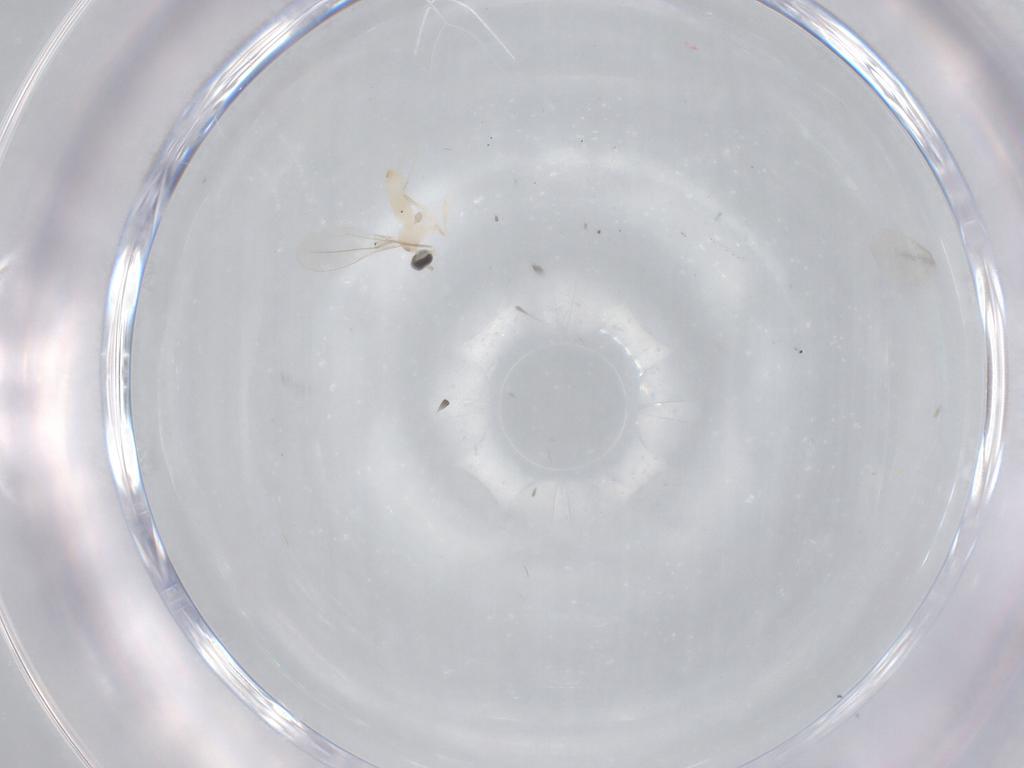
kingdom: Animalia
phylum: Arthropoda
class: Insecta
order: Diptera
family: Cecidomyiidae
